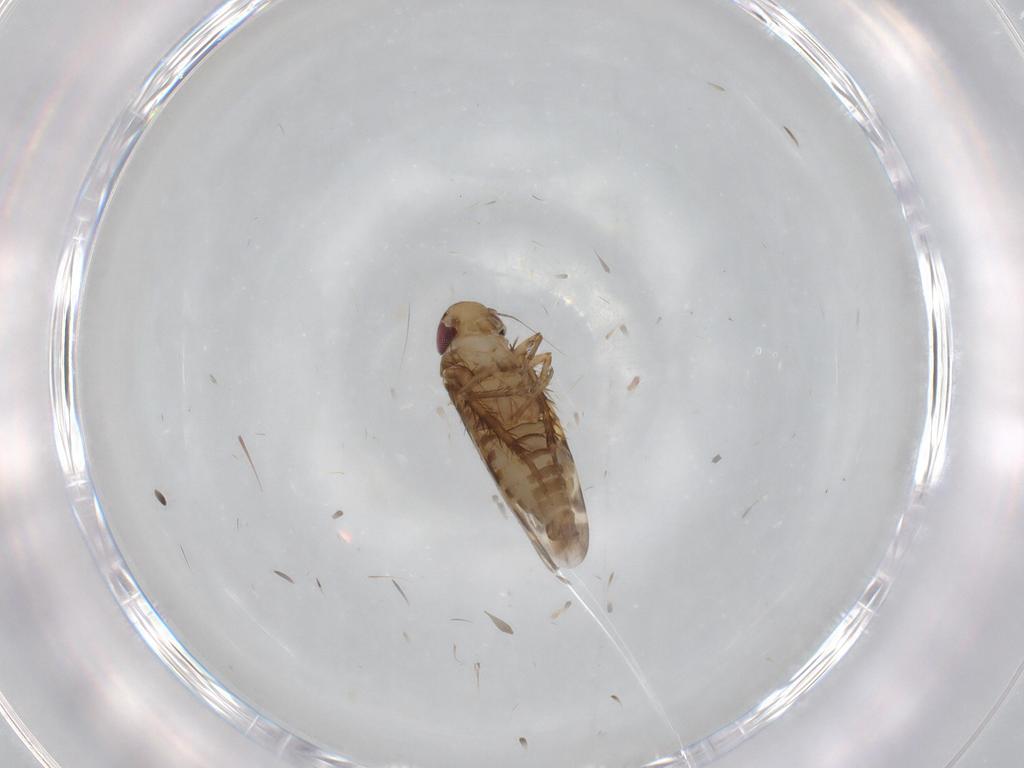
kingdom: Animalia
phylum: Arthropoda
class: Insecta
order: Hemiptera
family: Cicadellidae
